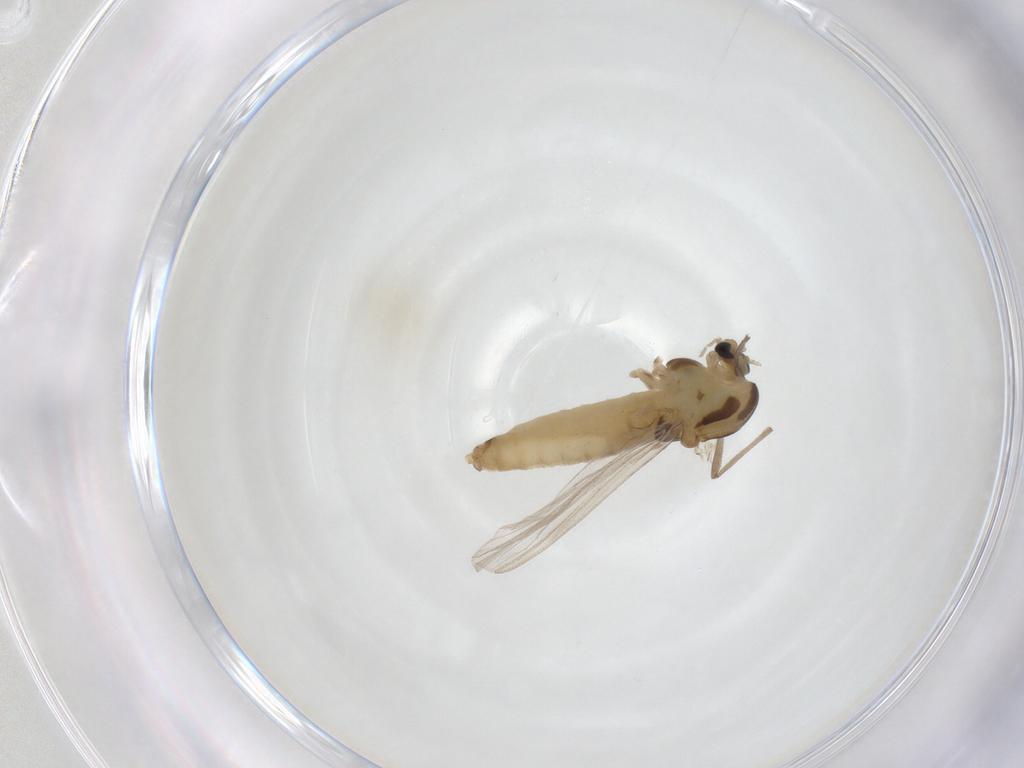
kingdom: Animalia
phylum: Arthropoda
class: Insecta
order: Diptera
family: Chironomidae
